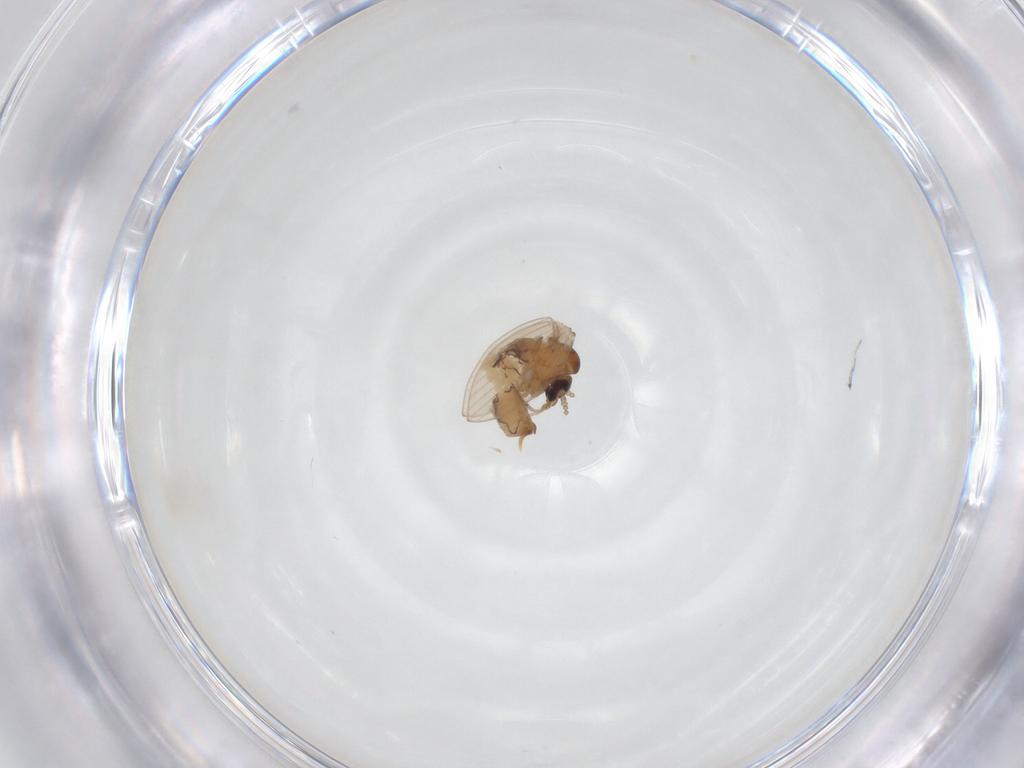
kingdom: Animalia
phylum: Arthropoda
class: Insecta
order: Diptera
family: Psychodidae
